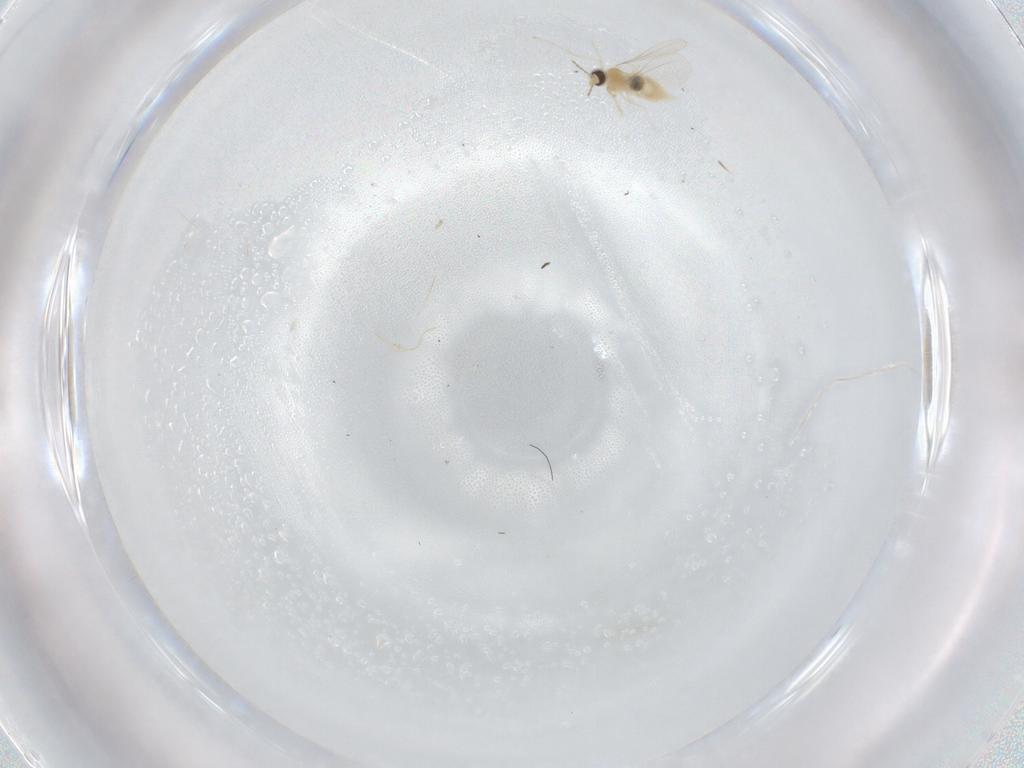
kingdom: Animalia
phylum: Arthropoda
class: Insecta
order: Diptera
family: Cecidomyiidae
